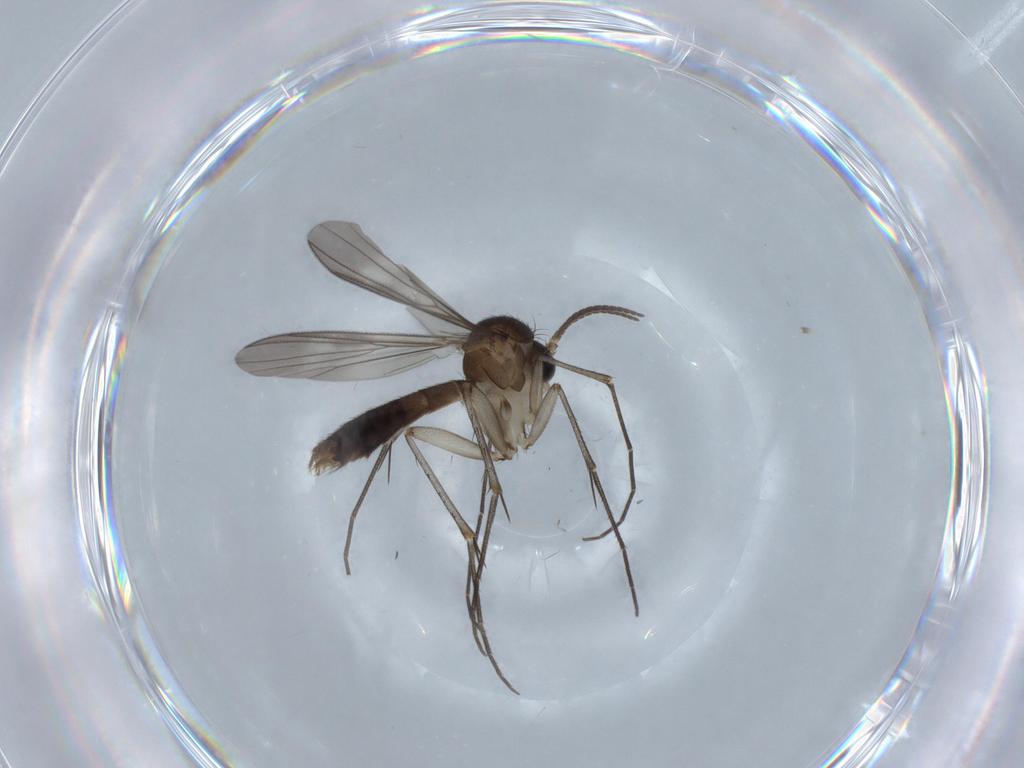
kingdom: Animalia
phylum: Arthropoda
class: Insecta
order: Diptera
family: Mycetophilidae
